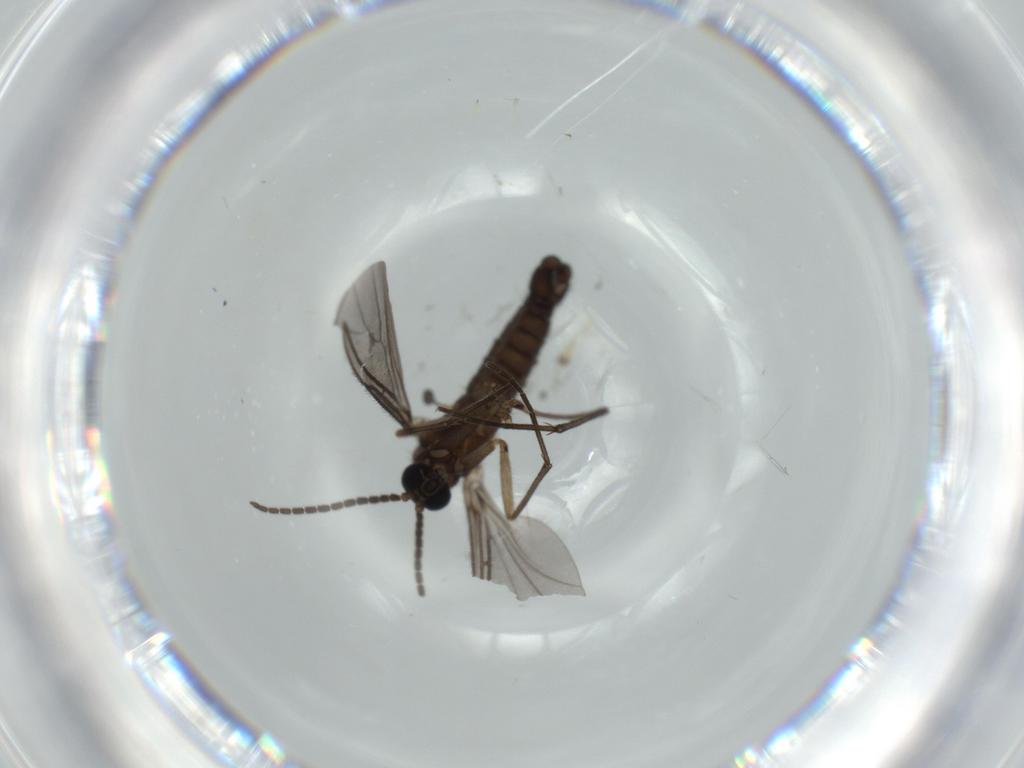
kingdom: Animalia
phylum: Arthropoda
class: Insecta
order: Diptera
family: Sciaridae
